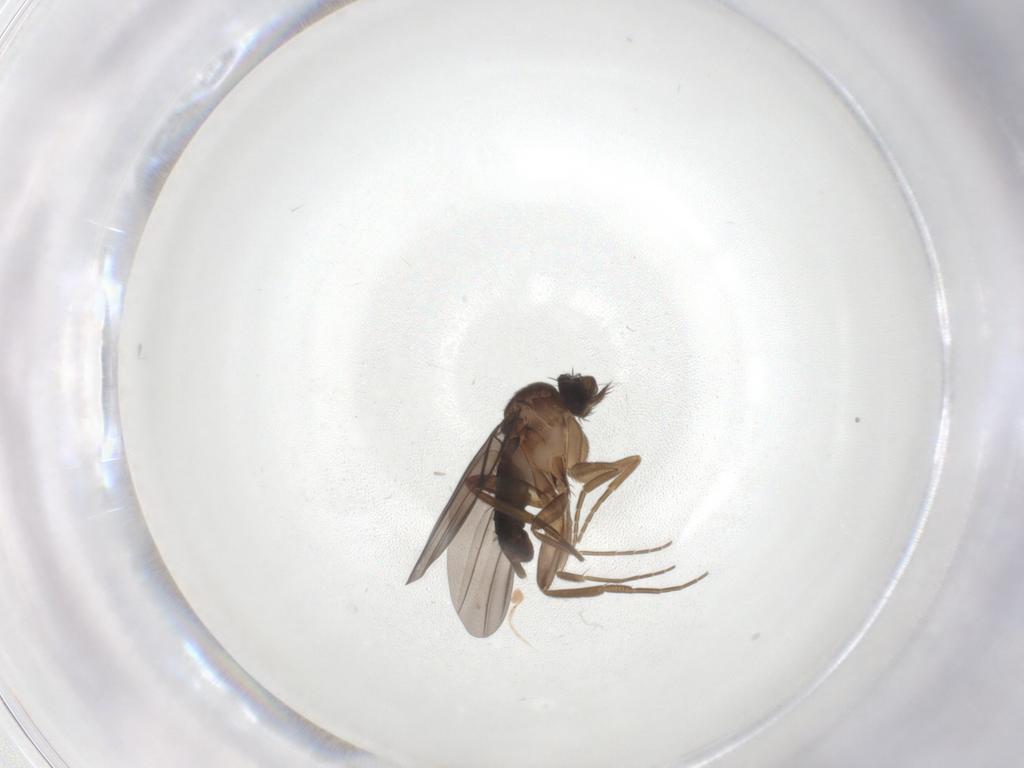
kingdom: Animalia
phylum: Arthropoda
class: Insecta
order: Diptera
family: Phoridae
